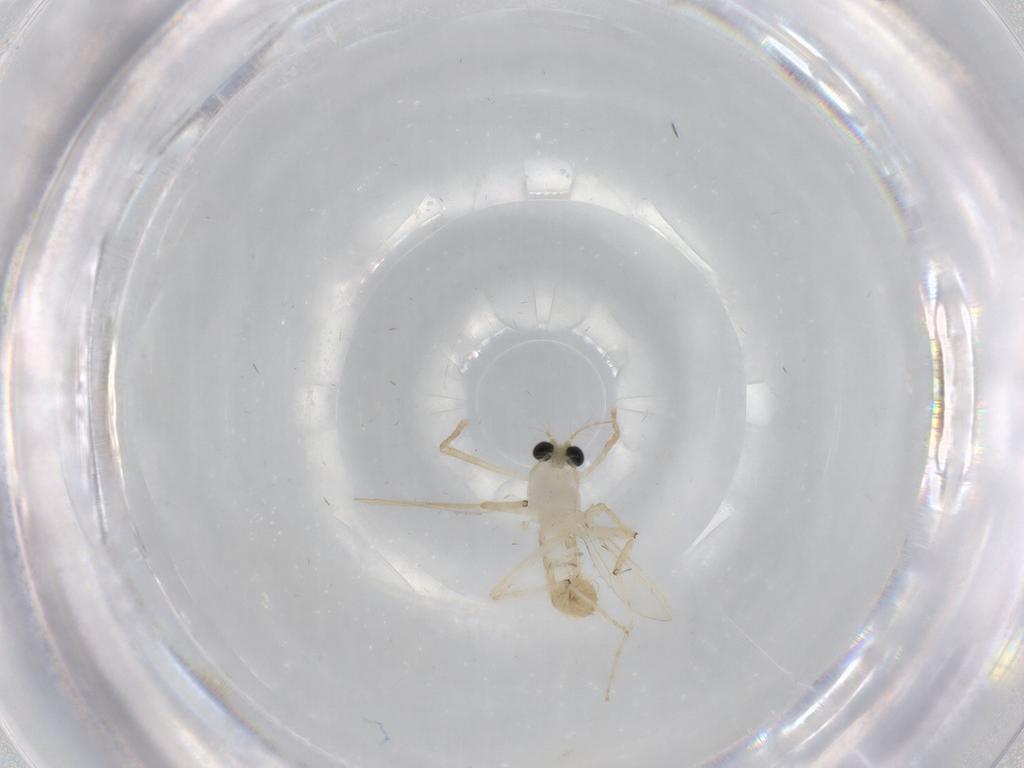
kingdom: Animalia
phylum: Arthropoda
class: Insecta
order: Diptera
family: Chironomidae
